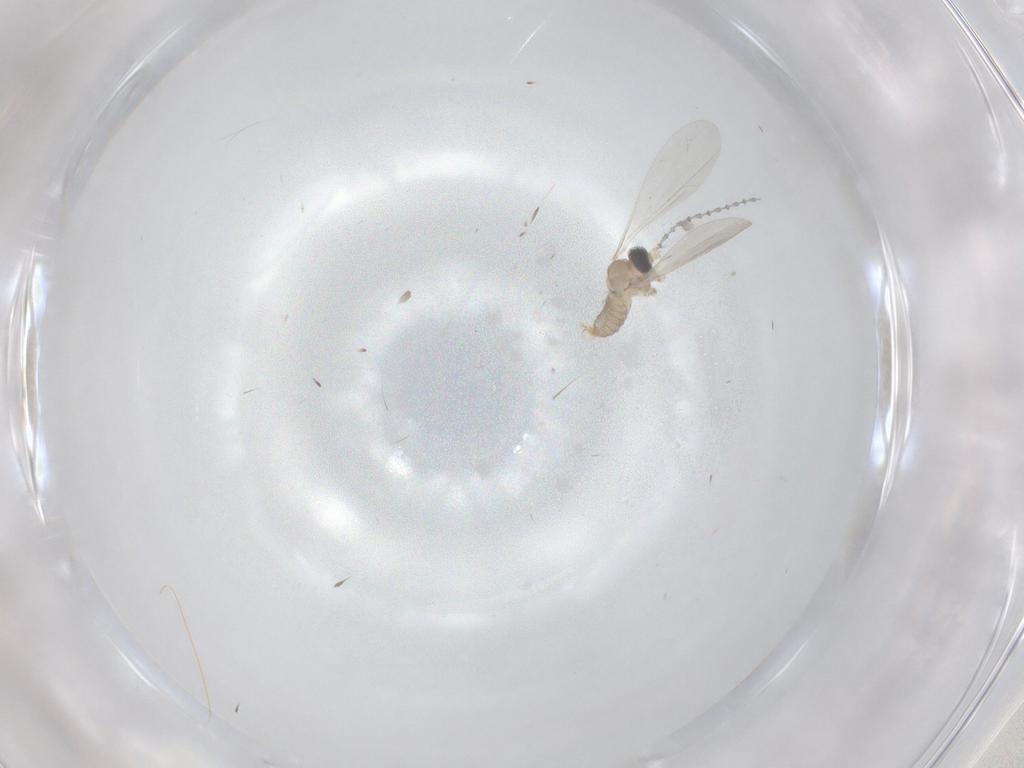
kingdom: Animalia
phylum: Arthropoda
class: Insecta
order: Diptera
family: Cecidomyiidae
